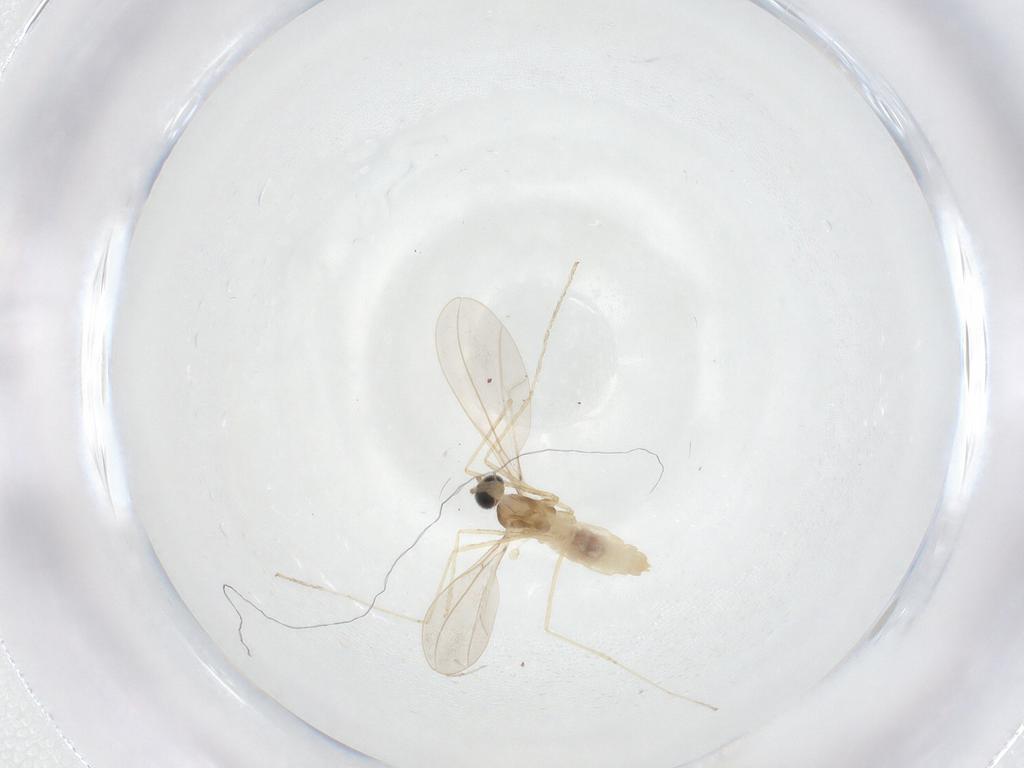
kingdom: Animalia
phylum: Arthropoda
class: Insecta
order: Diptera
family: Cecidomyiidae
